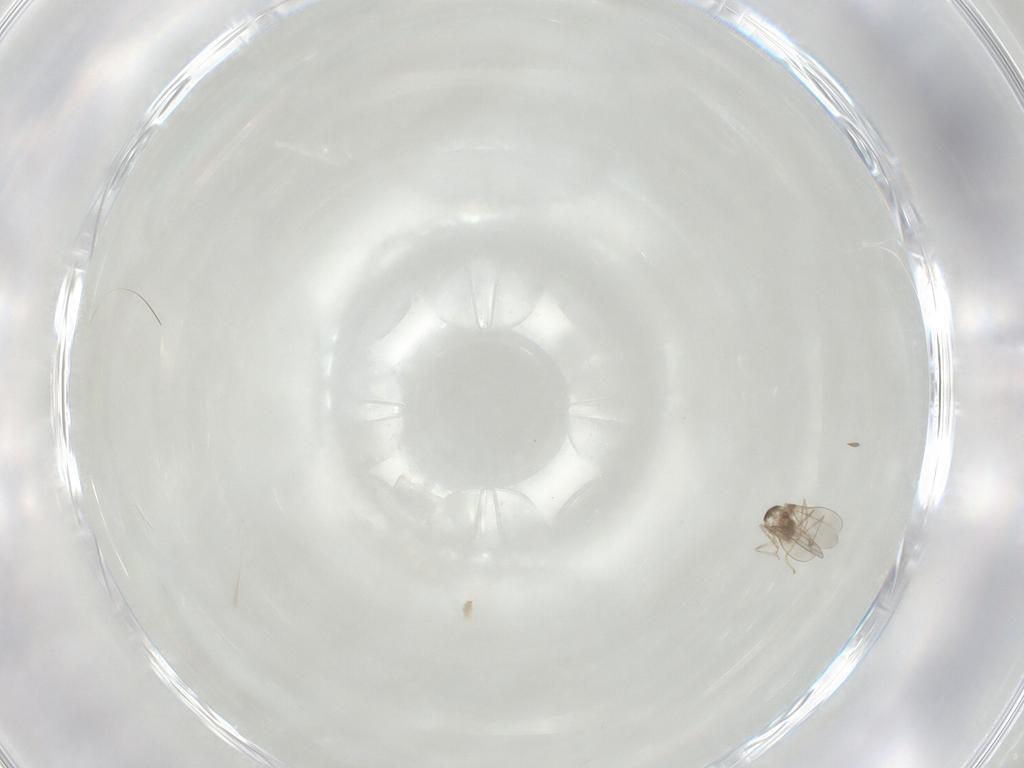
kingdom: Animalia
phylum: Arthropoda
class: Insecta
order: Diptera
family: Cecidomyiidae
